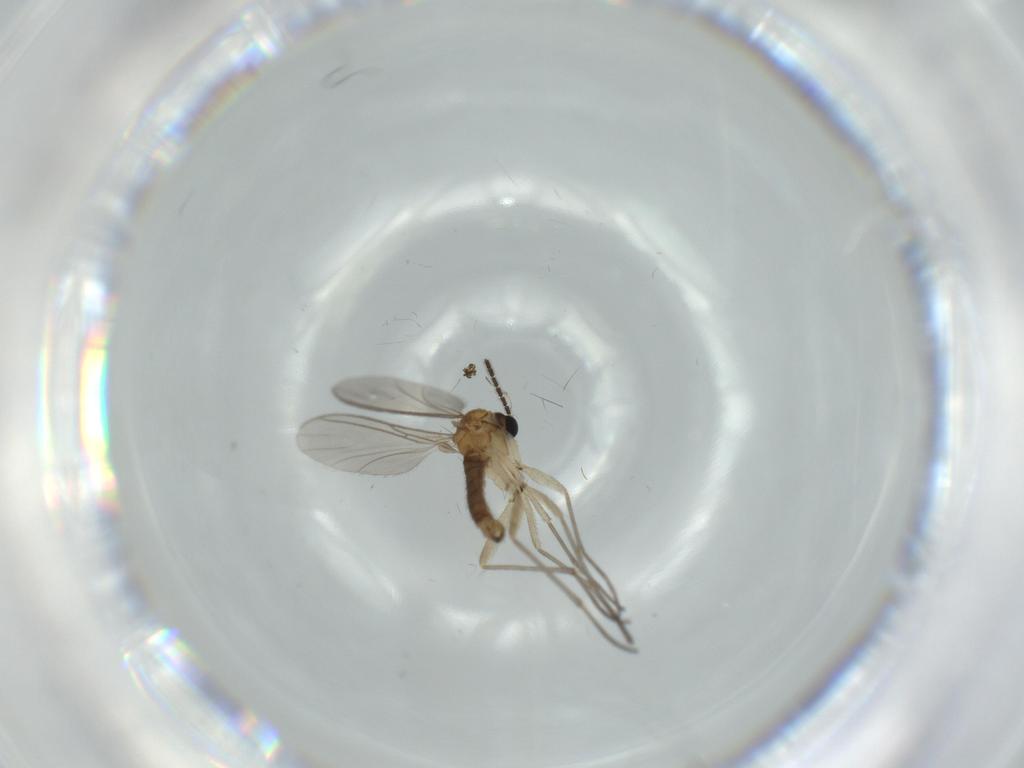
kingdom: Animalia
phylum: Arthropoda
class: Insecta
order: Diptera
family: Sciaridae
